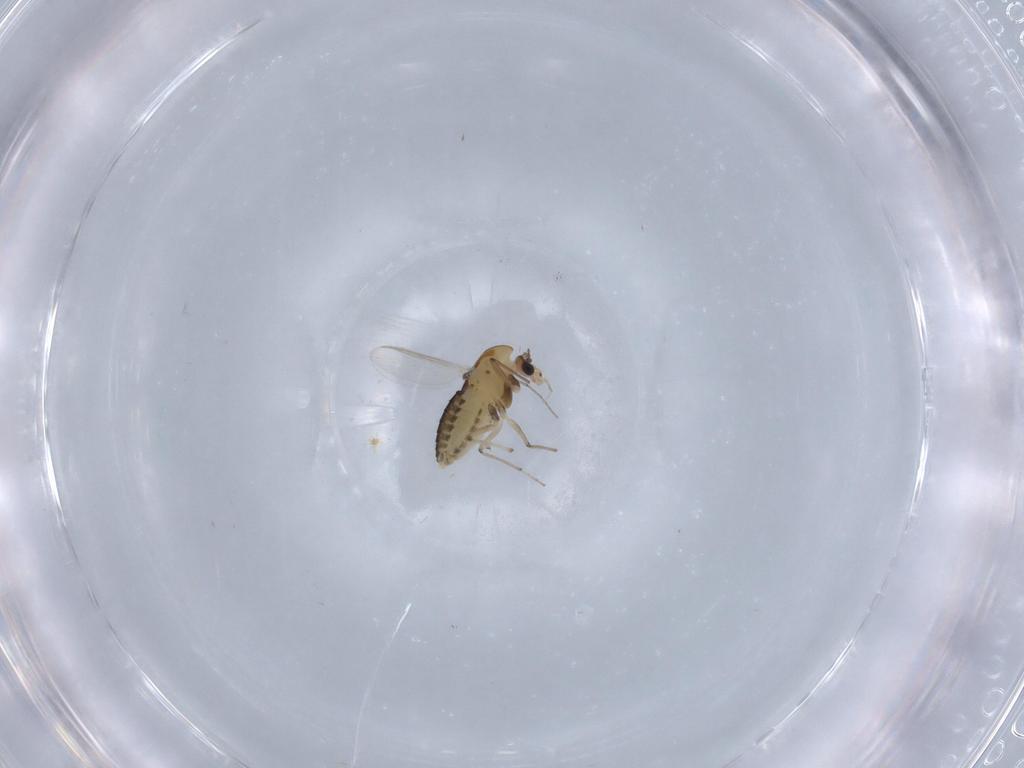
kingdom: Animalia
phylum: Arthropoda
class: Insecta
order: Diptera
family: Chironomidae
